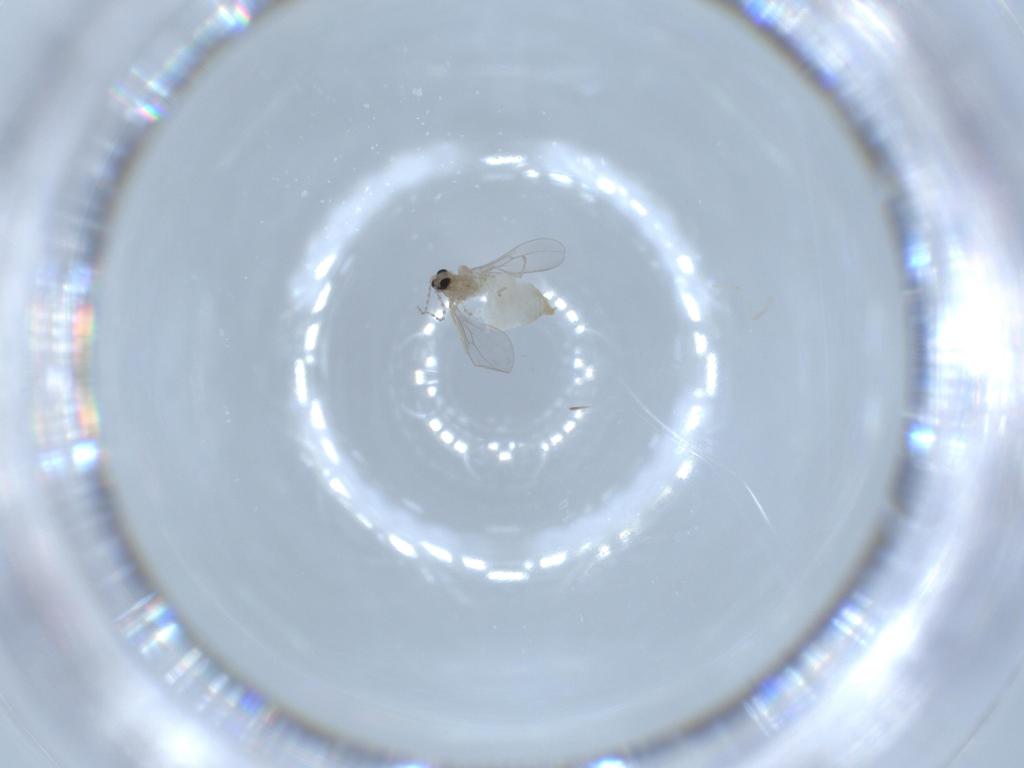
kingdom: Animalia
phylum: Arthropoda
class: Insecta
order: Diptera
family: Cecidomyiidae
